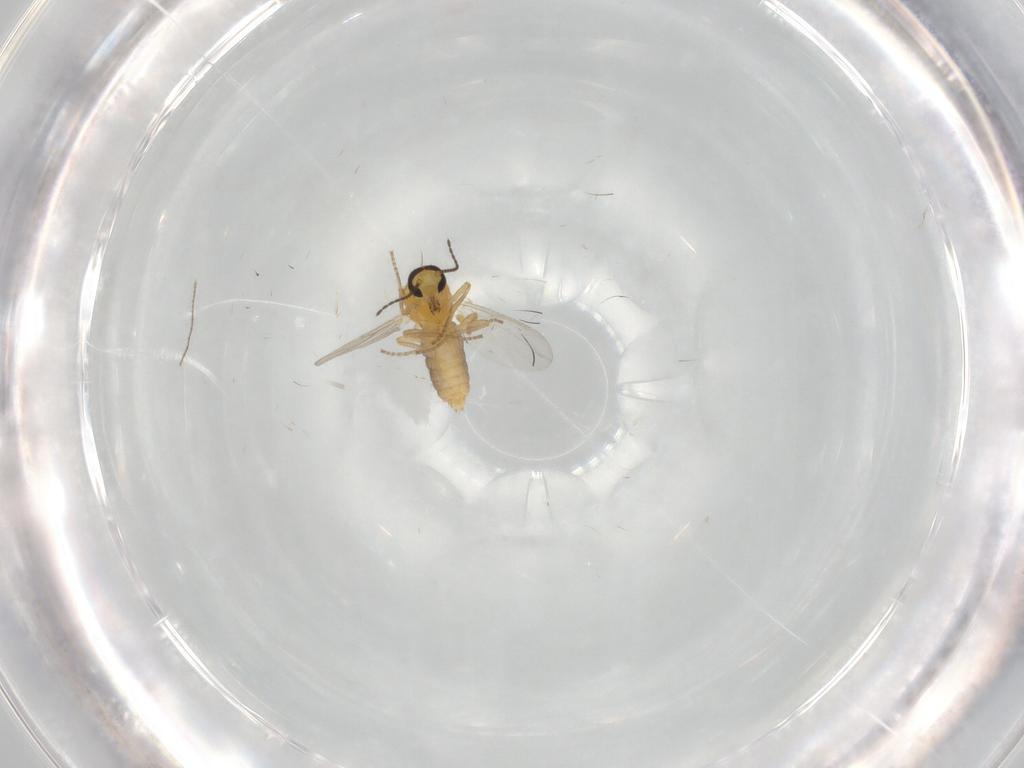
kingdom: Animalia
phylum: Arthropoda
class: Insecta
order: Diptera
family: Ceratopogonidae
